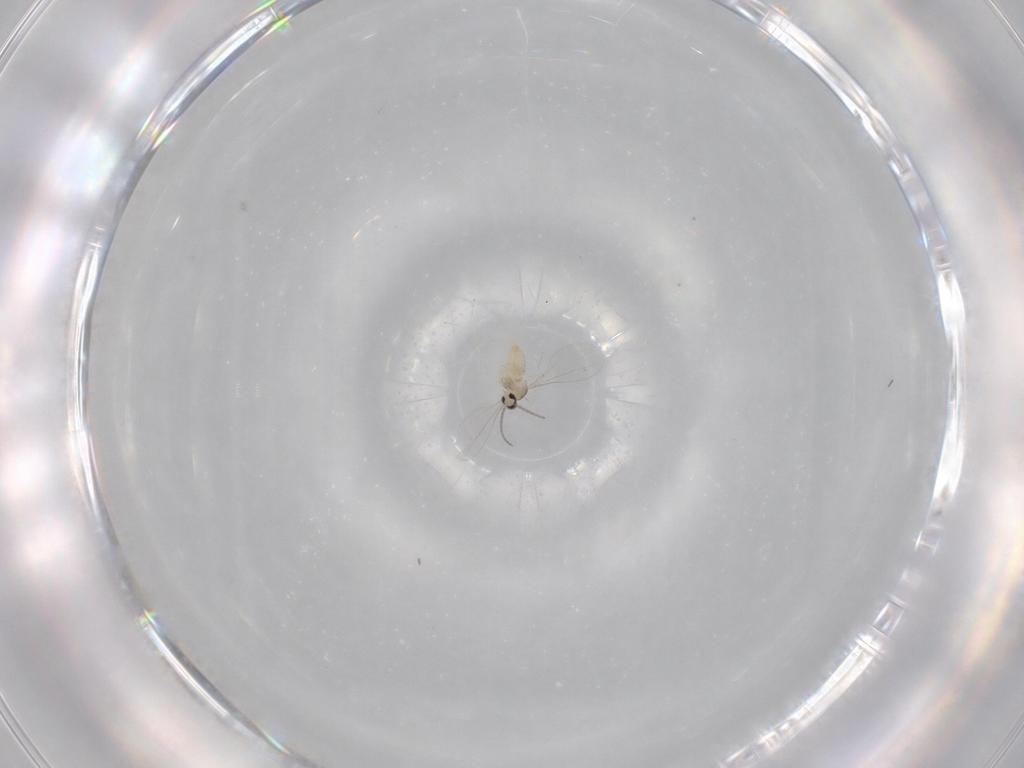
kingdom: Animalia
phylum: Arthropoda
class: Insecta
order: Diptera
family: Cecidomyiidae
